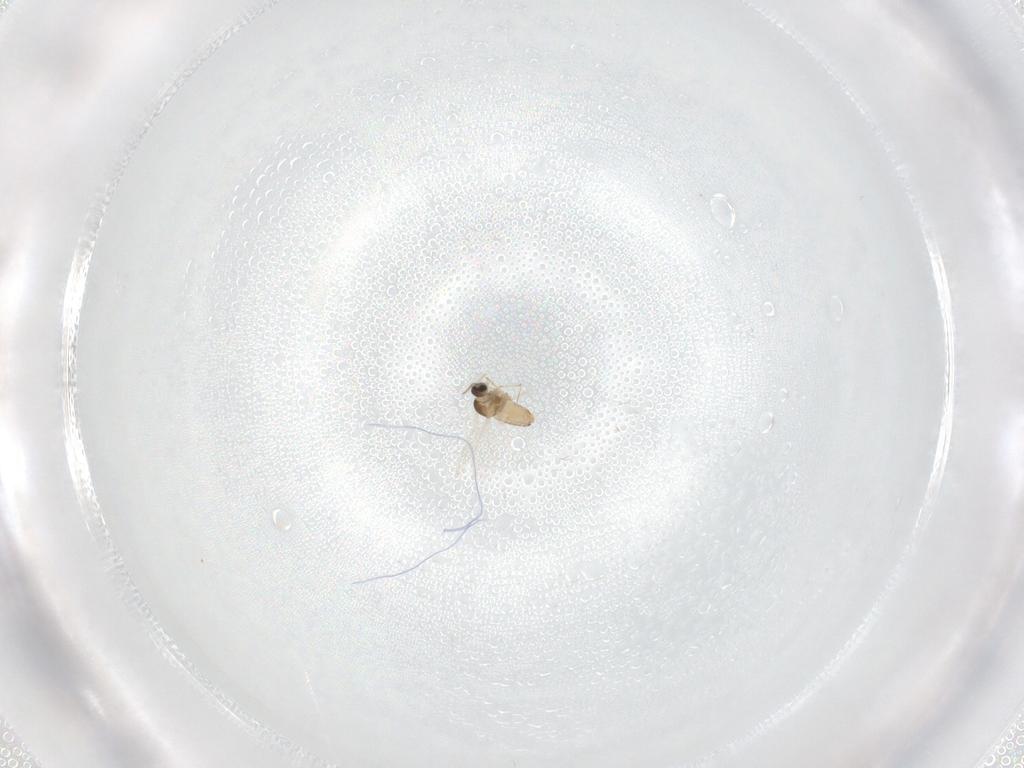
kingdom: Animalia
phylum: Arthropoda
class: Insecta
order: Diptera
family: Cecidomyiidae
